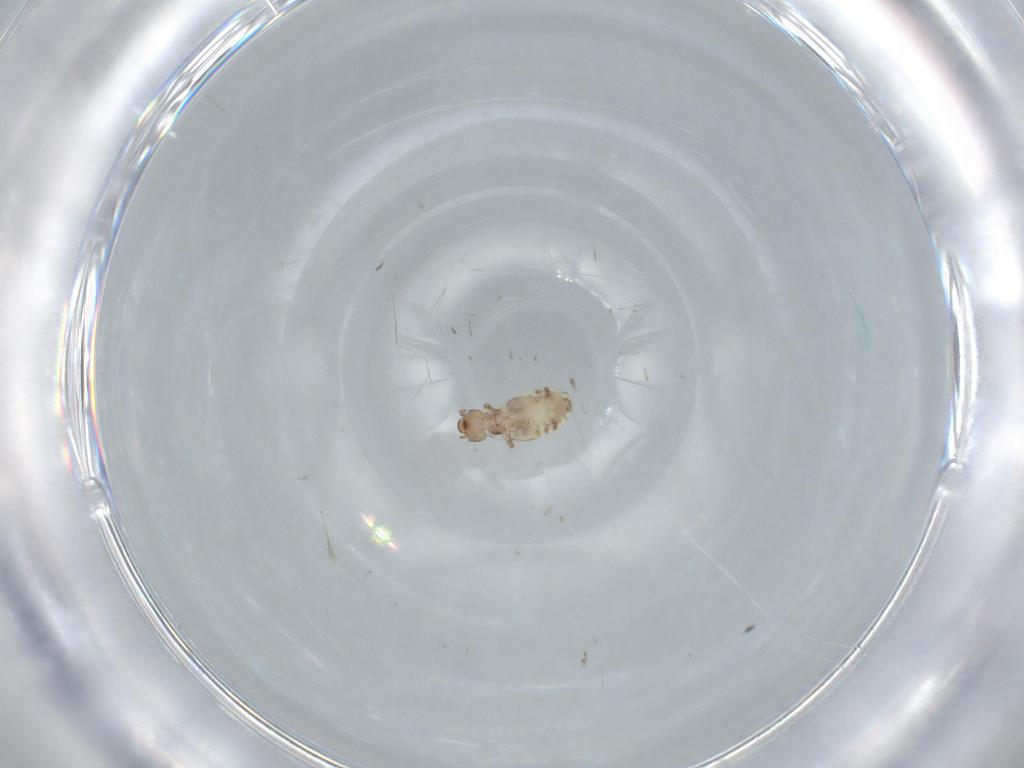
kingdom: Animalia
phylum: Arthropoda
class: Insecta
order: Psocodea
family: Liposcelididae
